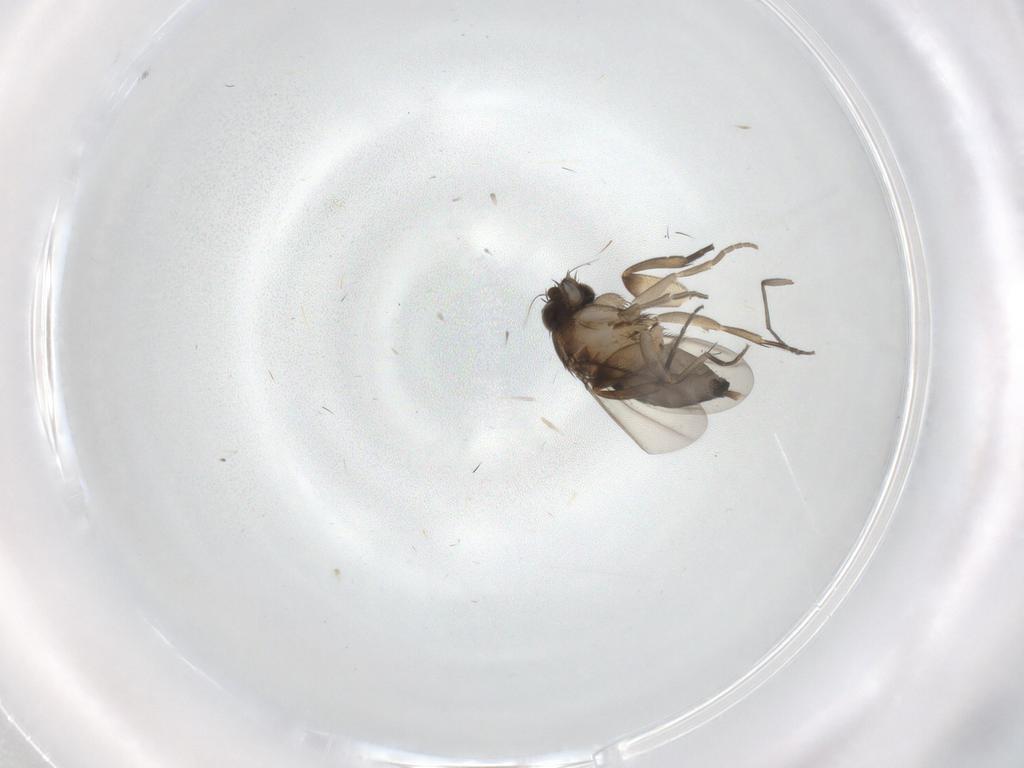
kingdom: Animalia
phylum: Arthropoda
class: Insecta
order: Diptera
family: Phoridae
